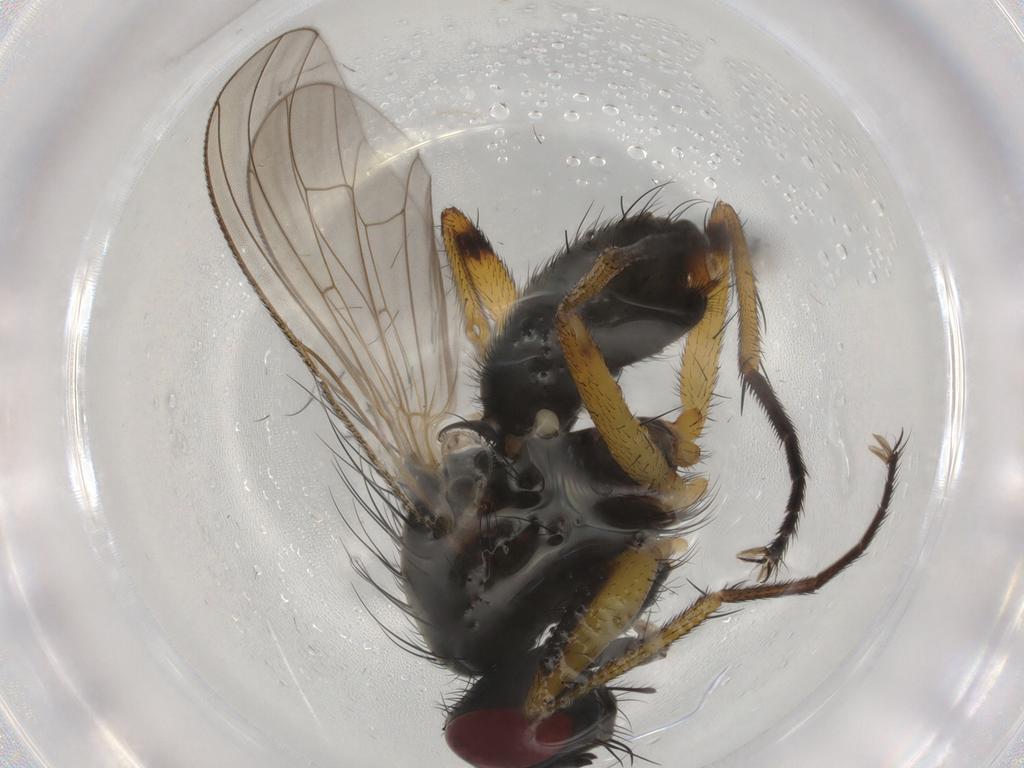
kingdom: Animalia
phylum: Arthropoda
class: Insecta
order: Diptera
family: Muscidae
